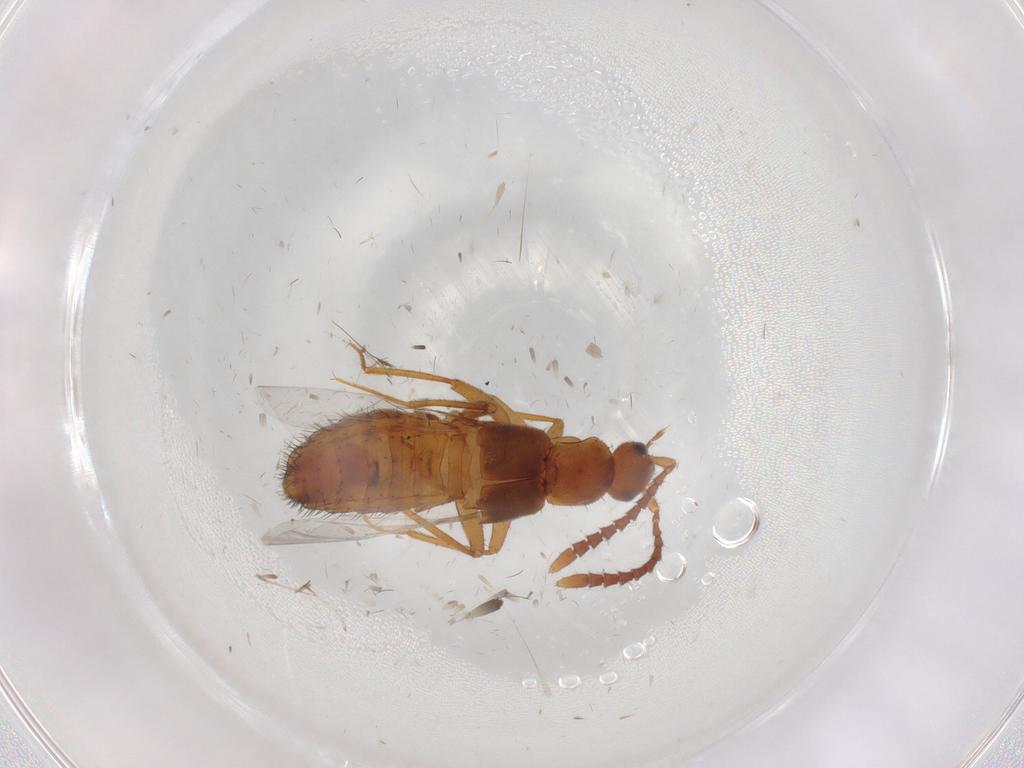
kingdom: Animalia
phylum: Arthropoda
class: Insecta
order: Coleoptera
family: Staphylinidae
